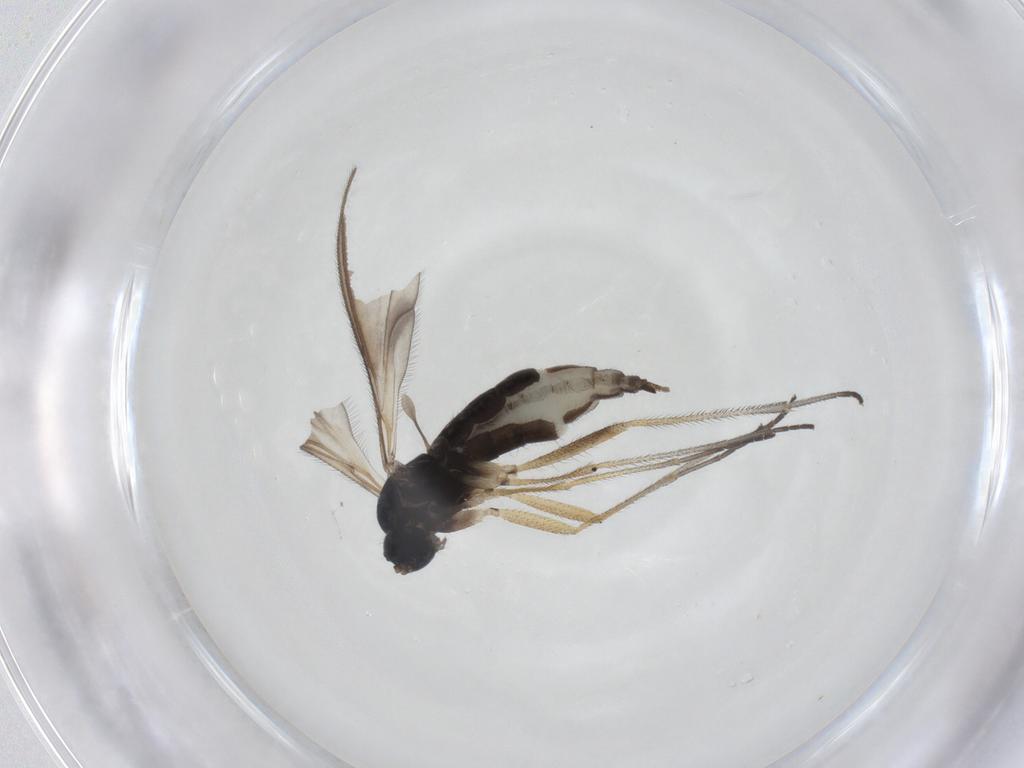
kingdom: Animalia
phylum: Arthropoda
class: Insecta
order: Diptera
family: Sciaridae
